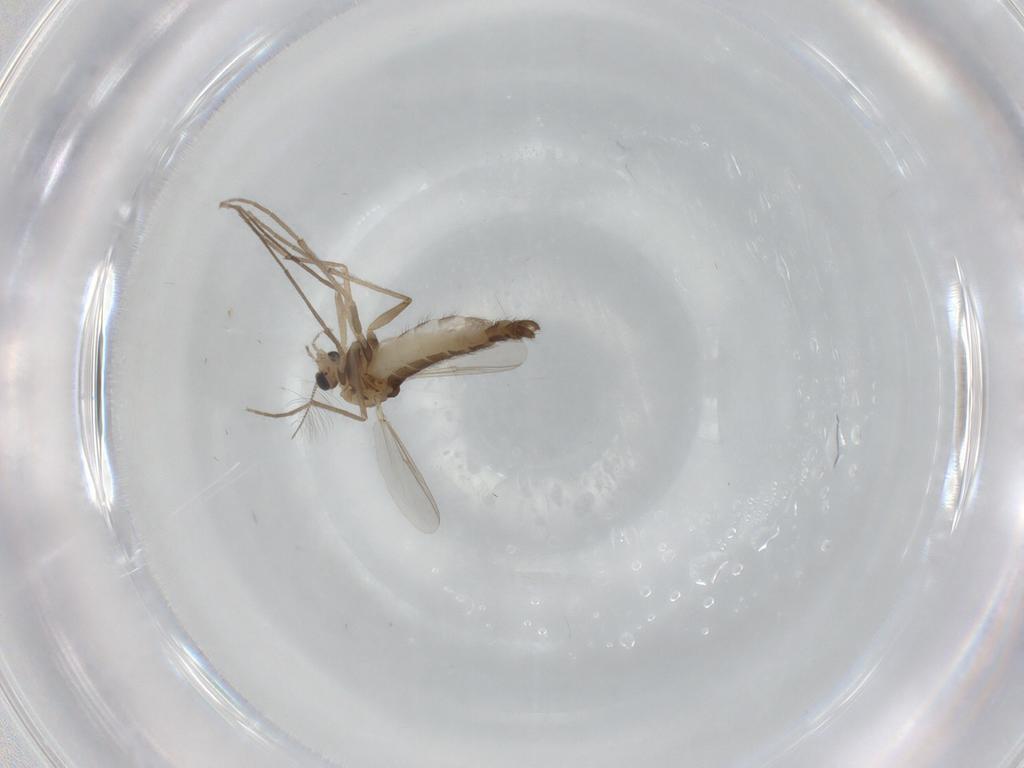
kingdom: Animalia
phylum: Arthropoda
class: Insecta
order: Diptera
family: Chironomidae
